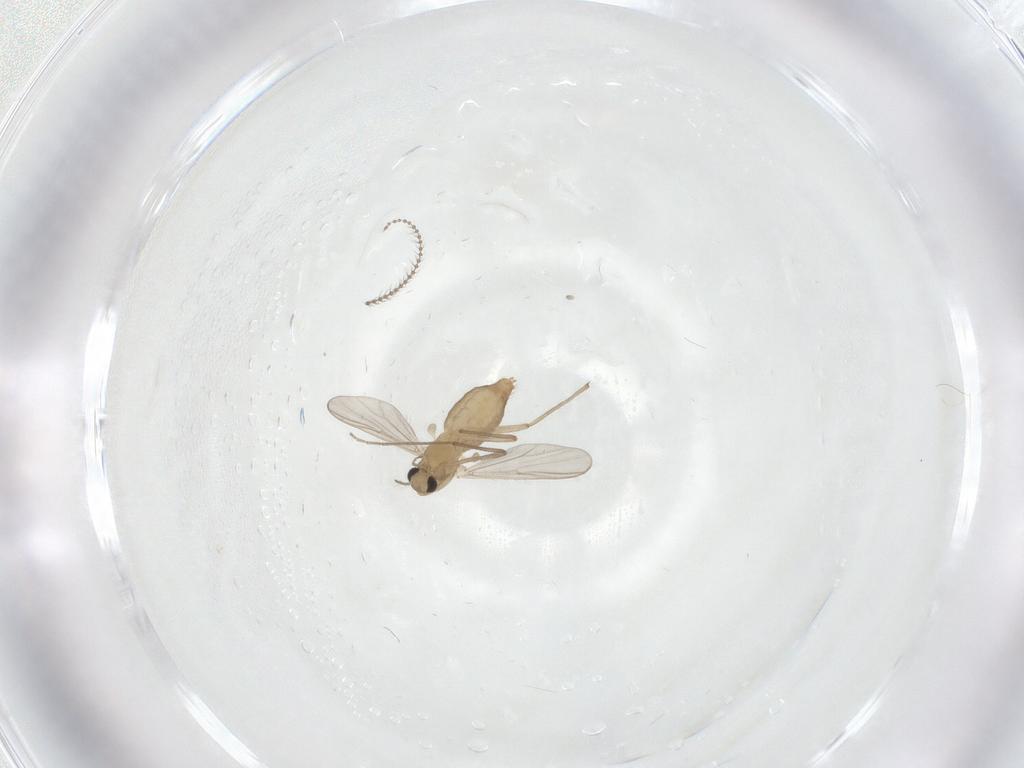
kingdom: Animalia
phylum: Arthropoda
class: Insecta
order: Diptera
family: Chironomidae
